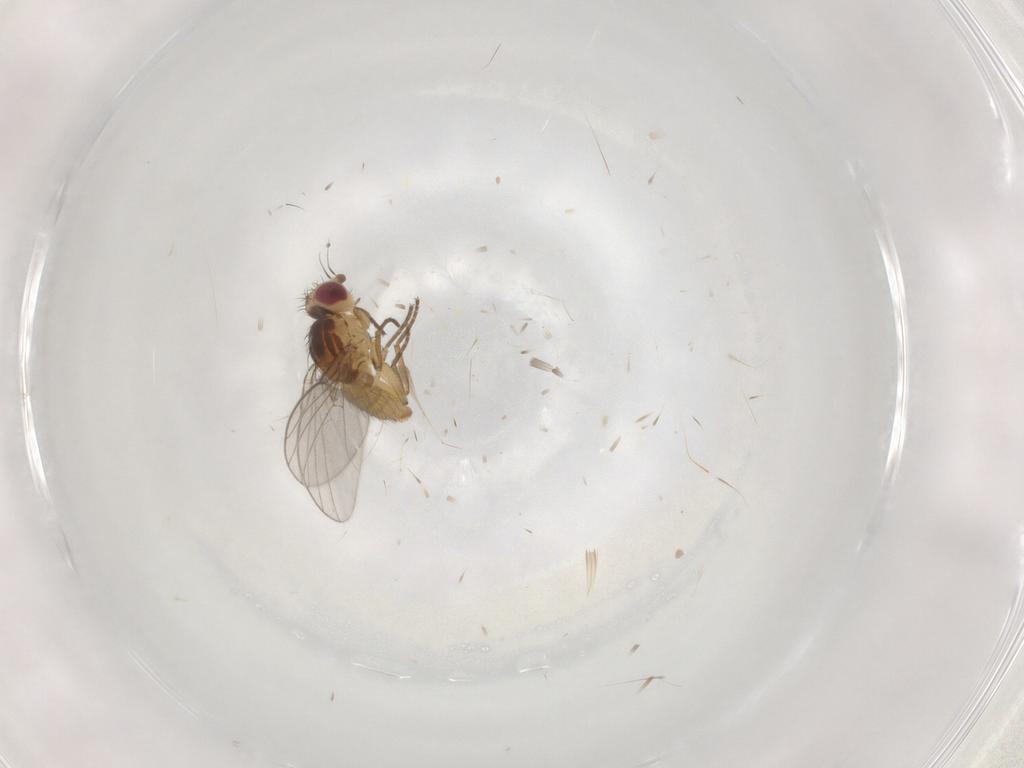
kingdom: Animalia
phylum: Arthropoda
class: Insecta
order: Diptera
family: Agromyzidae
